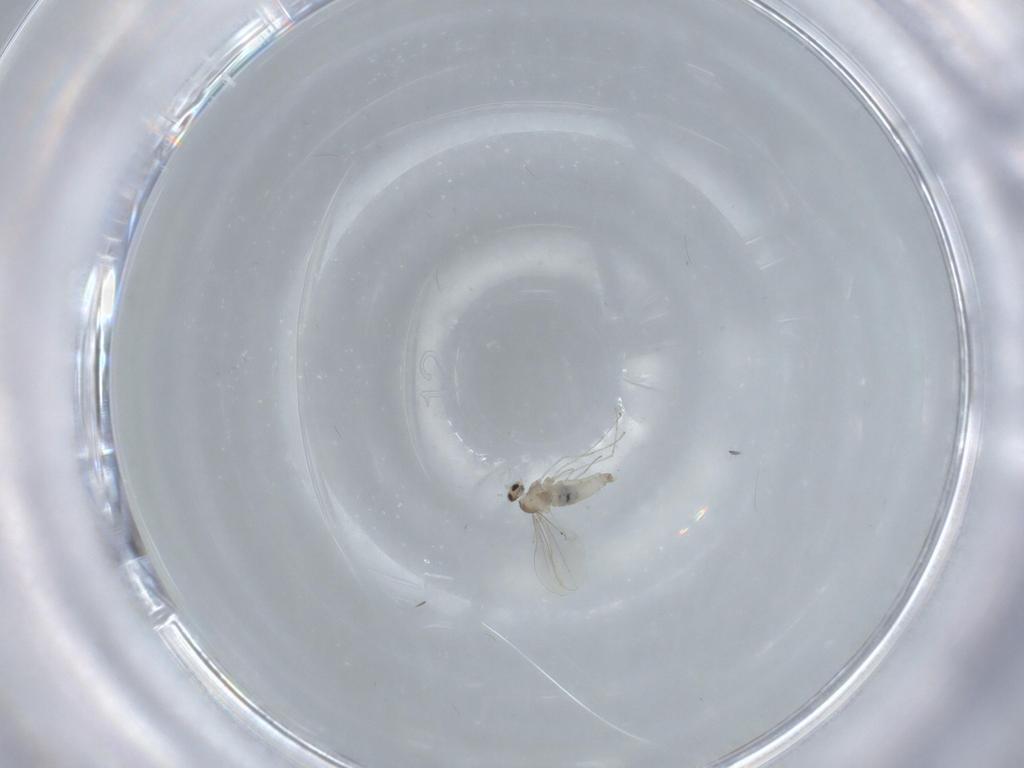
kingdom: Animalia
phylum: Arthropoda
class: Insecta
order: Diptera
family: Cecidomyiidae
